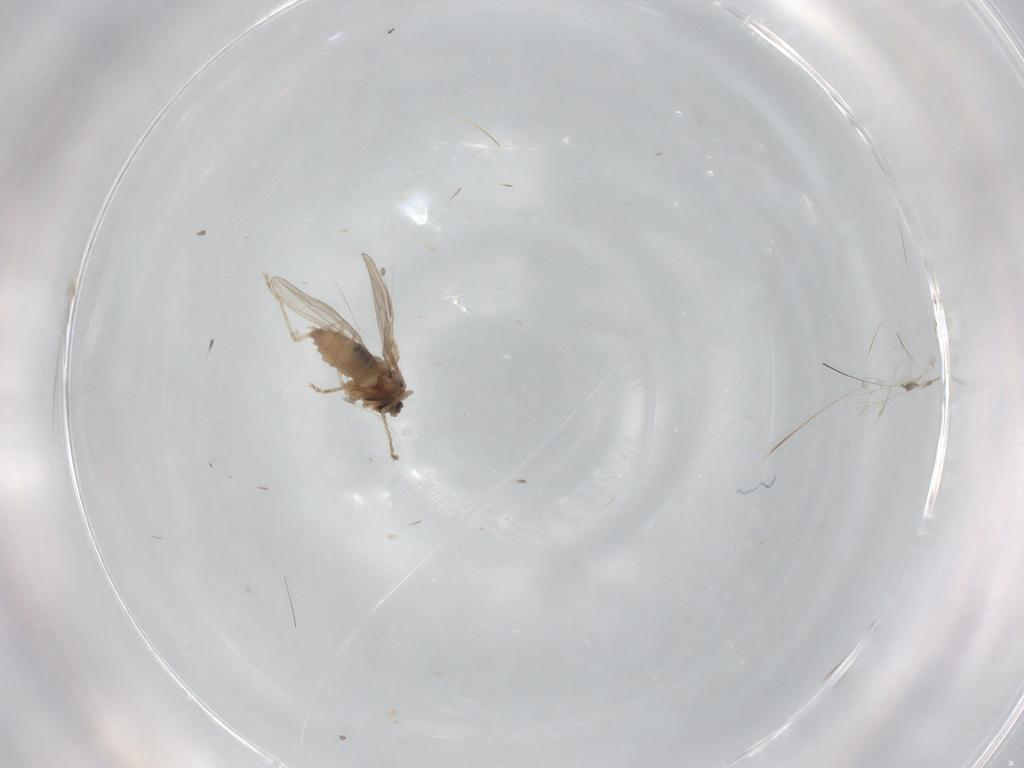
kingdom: Animalia
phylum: Arthropoda
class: Insecta
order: Diptera
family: Cecidomyiidae
